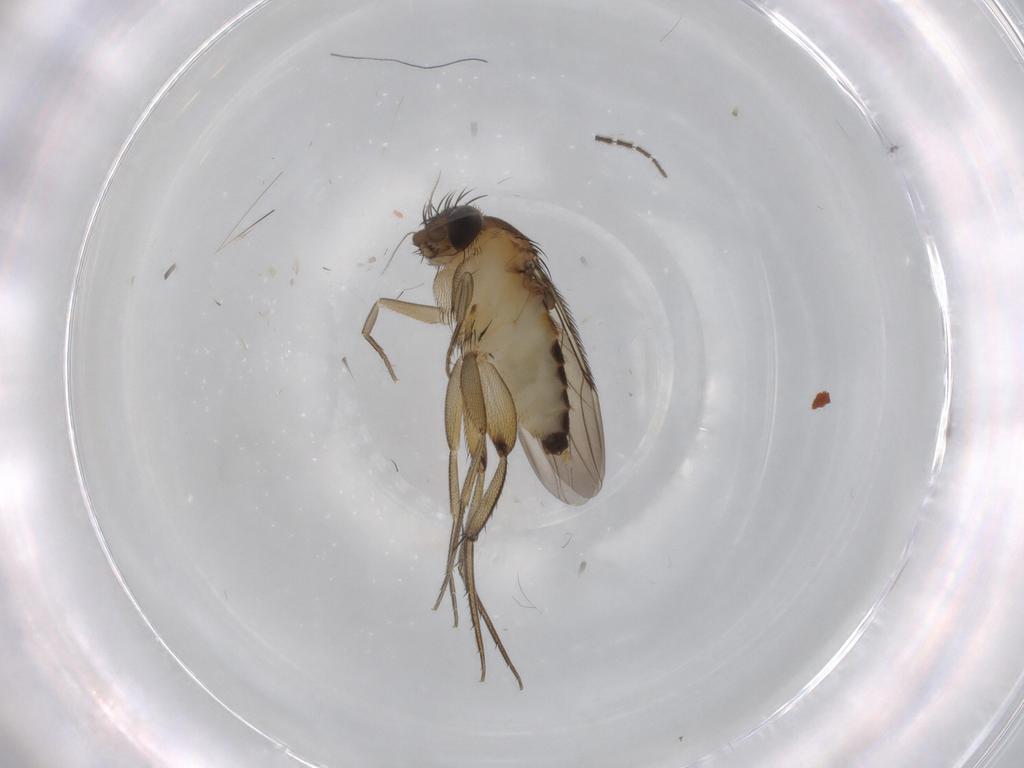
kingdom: Animalia
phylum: Arthropoda
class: Insecta
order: Diptera
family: Phoridae
